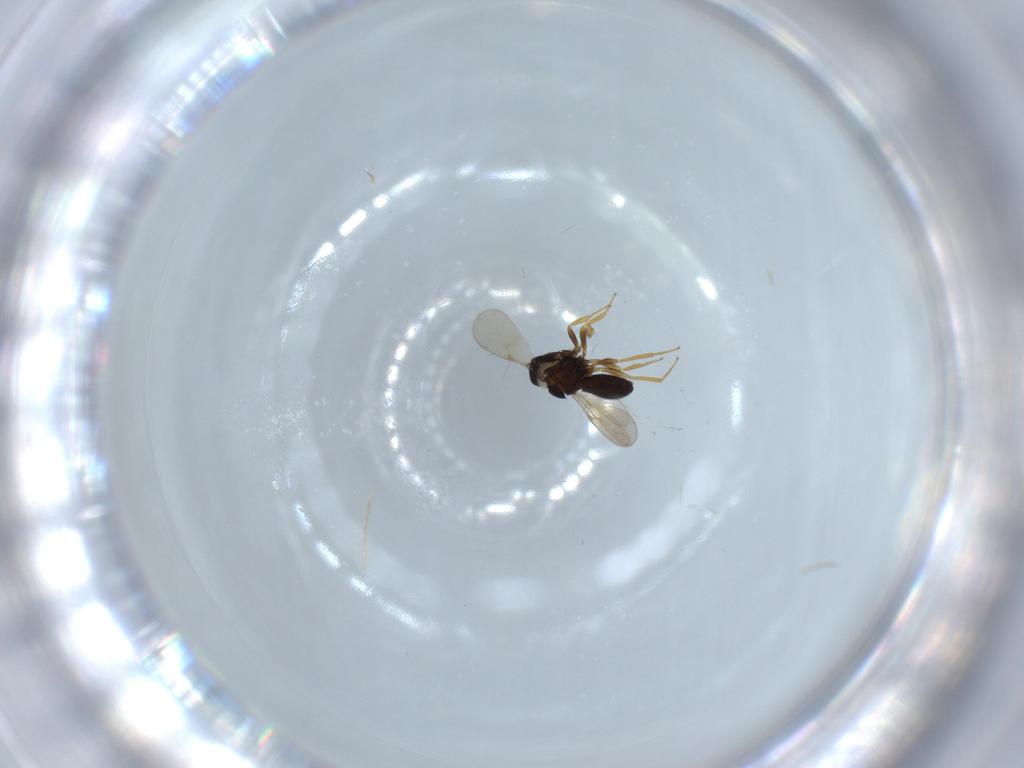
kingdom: Animalia
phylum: Arthropoda
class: Insecta
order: Hymenoptera
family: Scelionidae
